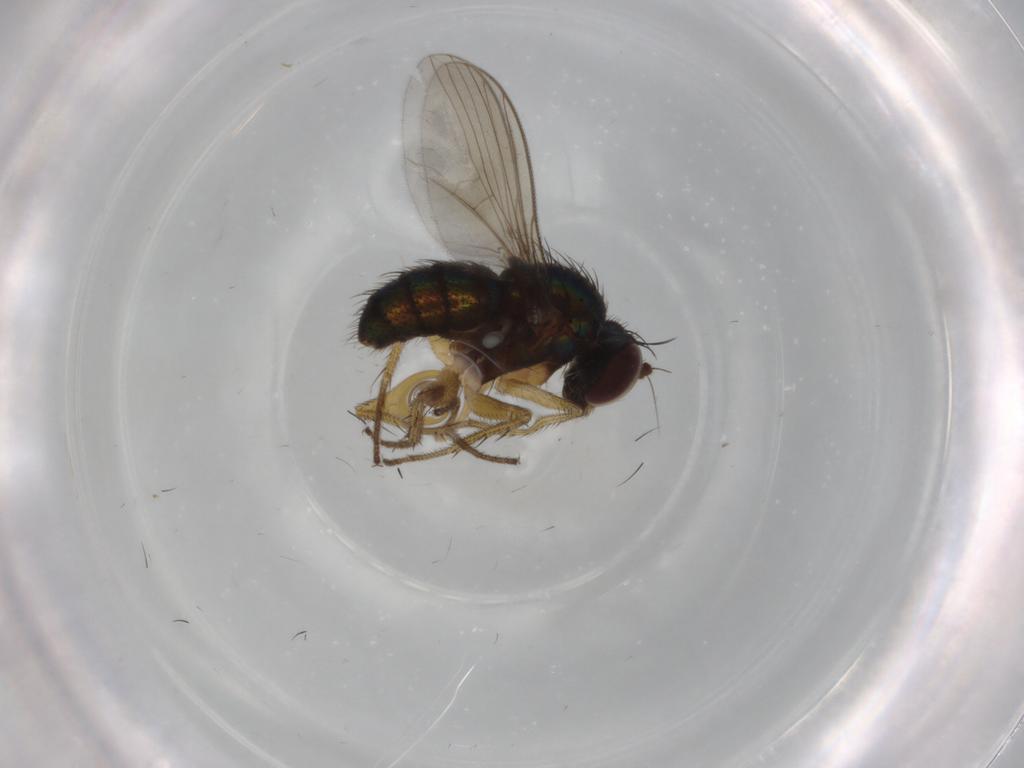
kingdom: Animalia
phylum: Arthropoda
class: Insecta
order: Diptera
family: Dolichopodidae
